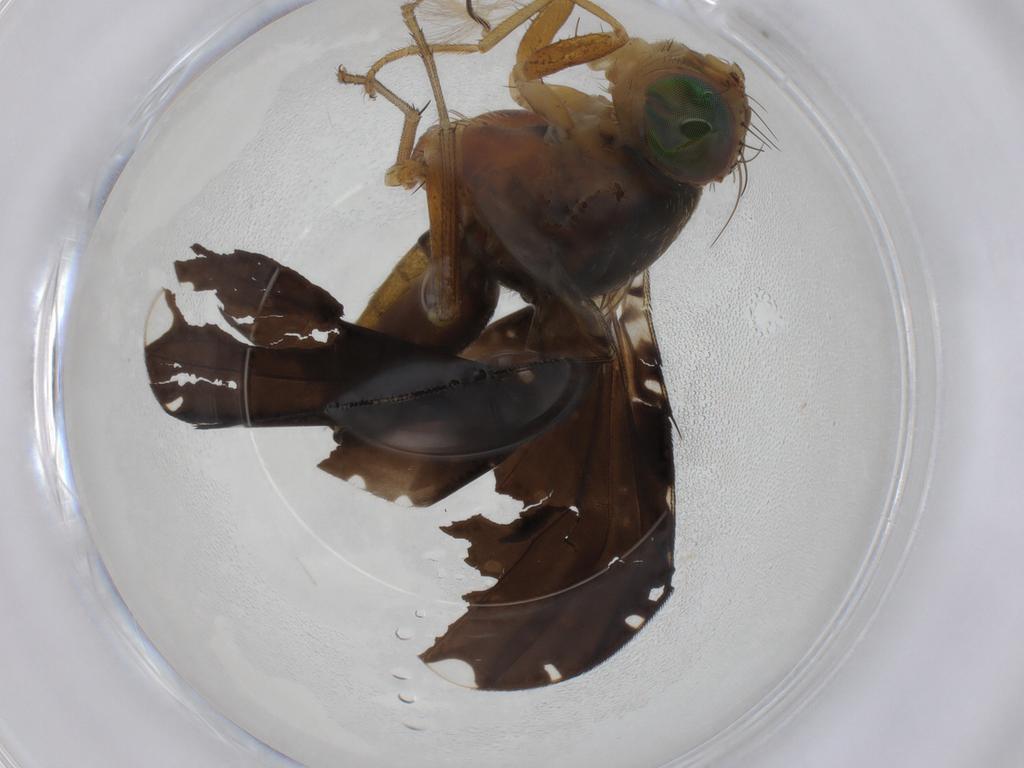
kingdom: Animalia
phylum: Arthropoda
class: Insecta
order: Diptera
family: Tephritidae
